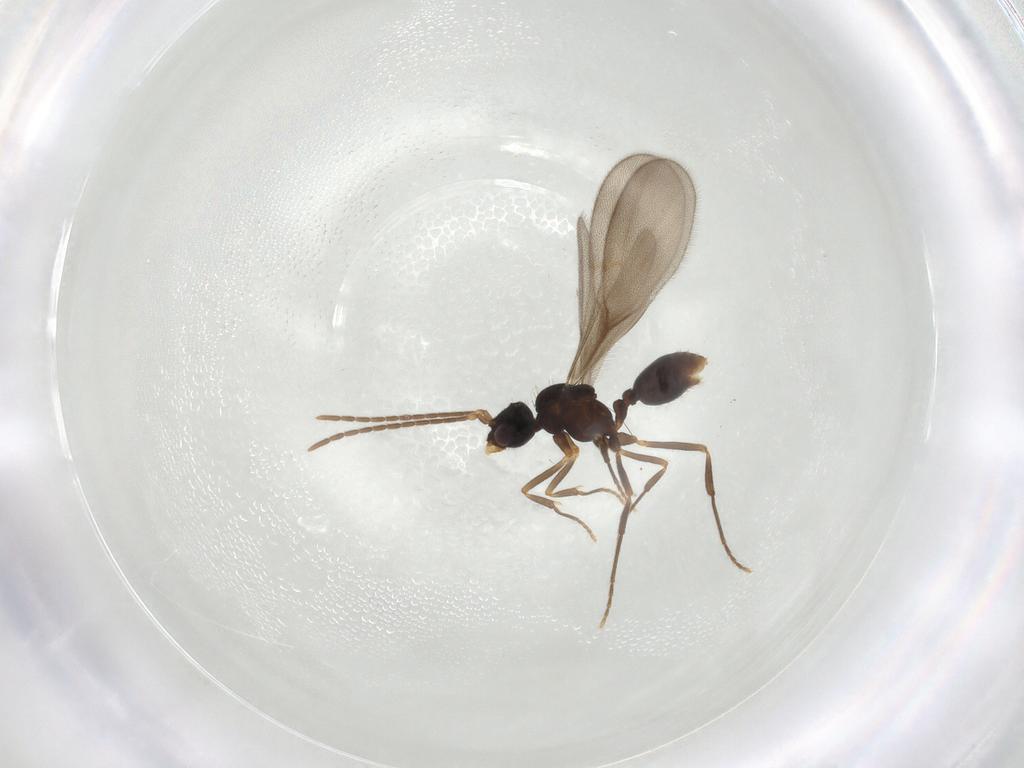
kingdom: Animalia
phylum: Arthropoda
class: Insecta
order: Hymenoptera
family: Formicidae
